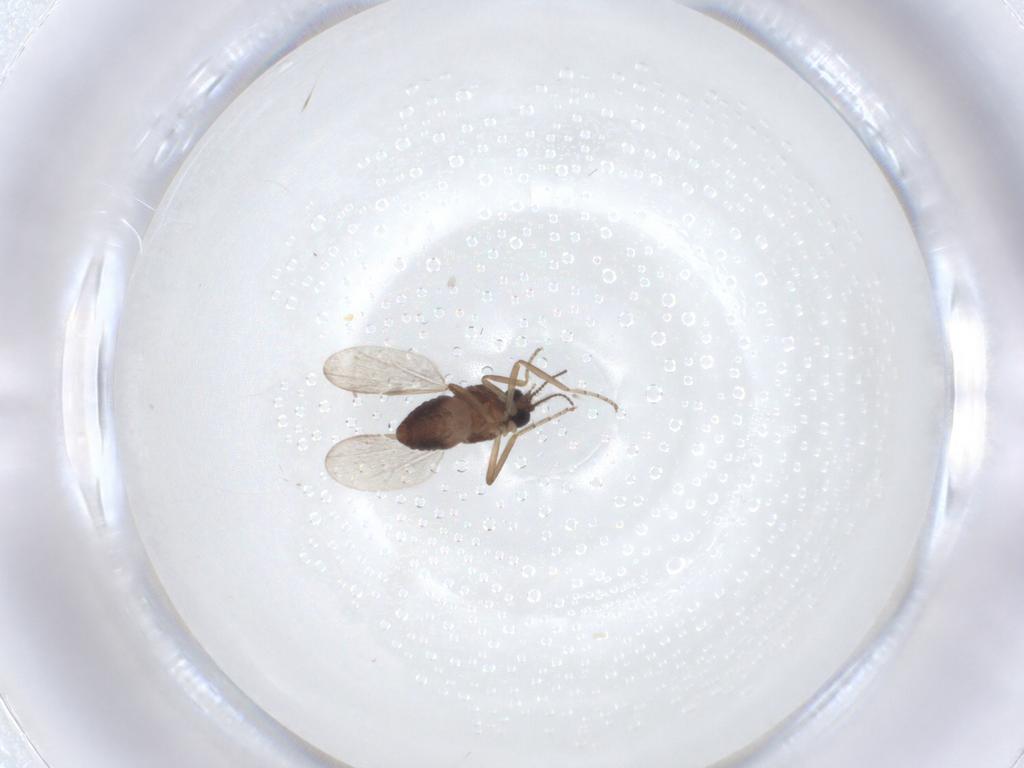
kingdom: Animalia
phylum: Arthropoda
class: Insecta
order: Diptera
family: Ceratopogonidae
